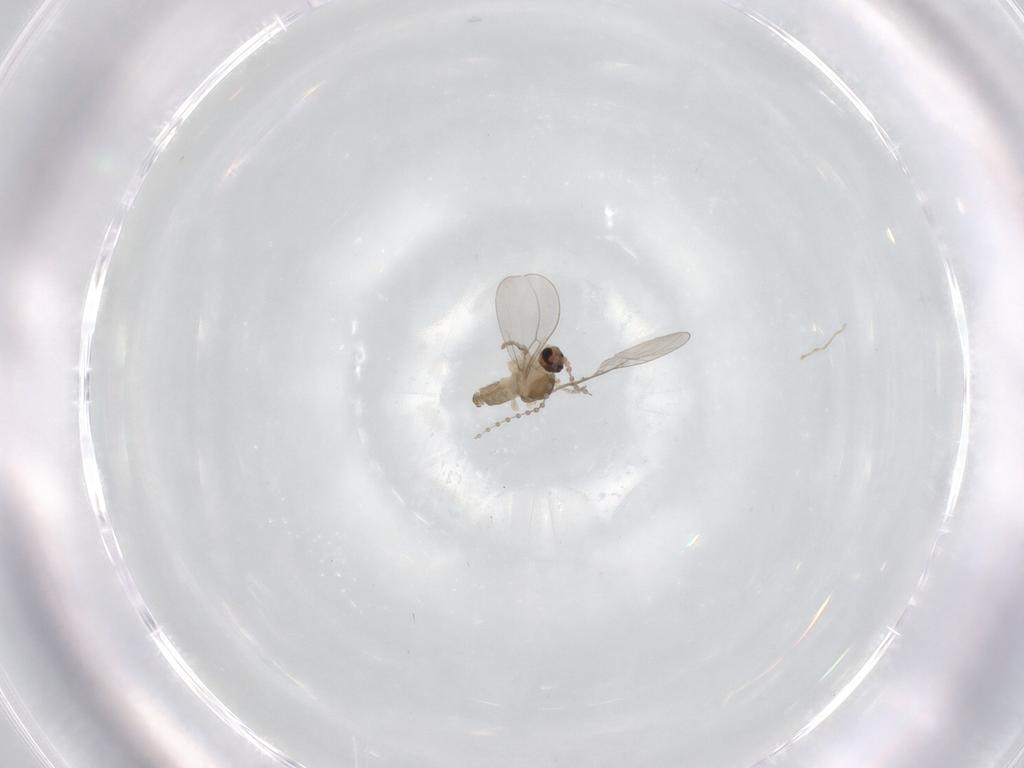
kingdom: Animalia
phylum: Arthropoda
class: Insecta
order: Diptera
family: Cecidomyiidae
